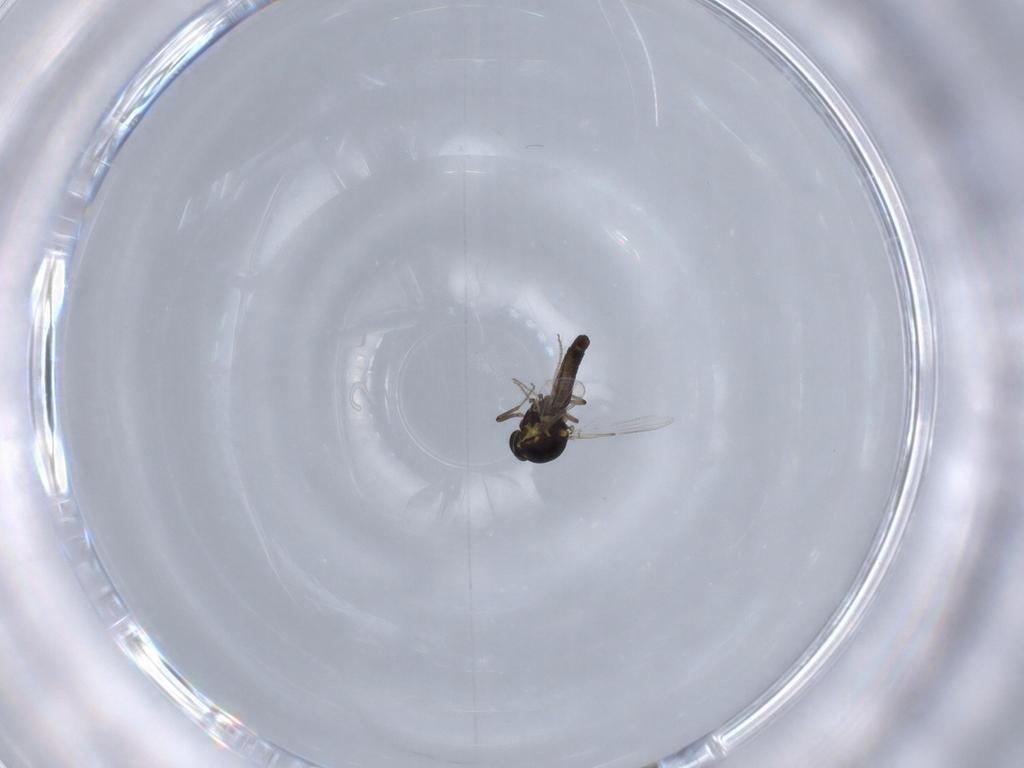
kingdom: Animalia
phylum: Arthropoda
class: Insecta
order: Diptera
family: Ceratopogonidae
